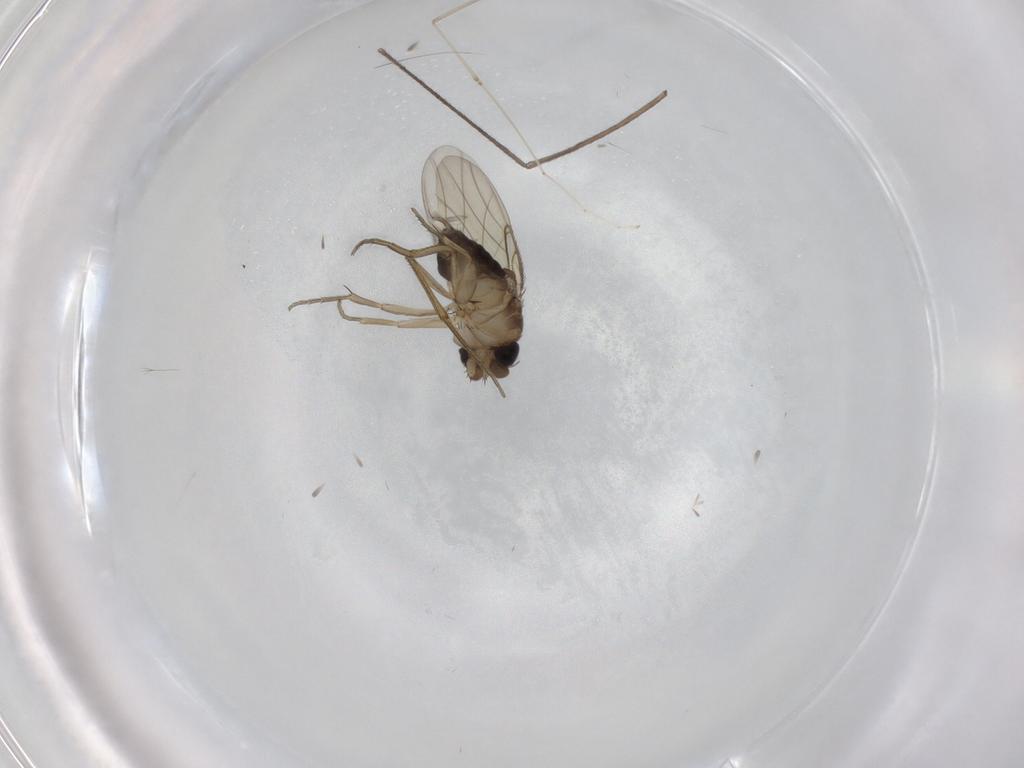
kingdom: Animalia
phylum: Arthropoda
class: Insecta
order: Diptera
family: Phoridae
